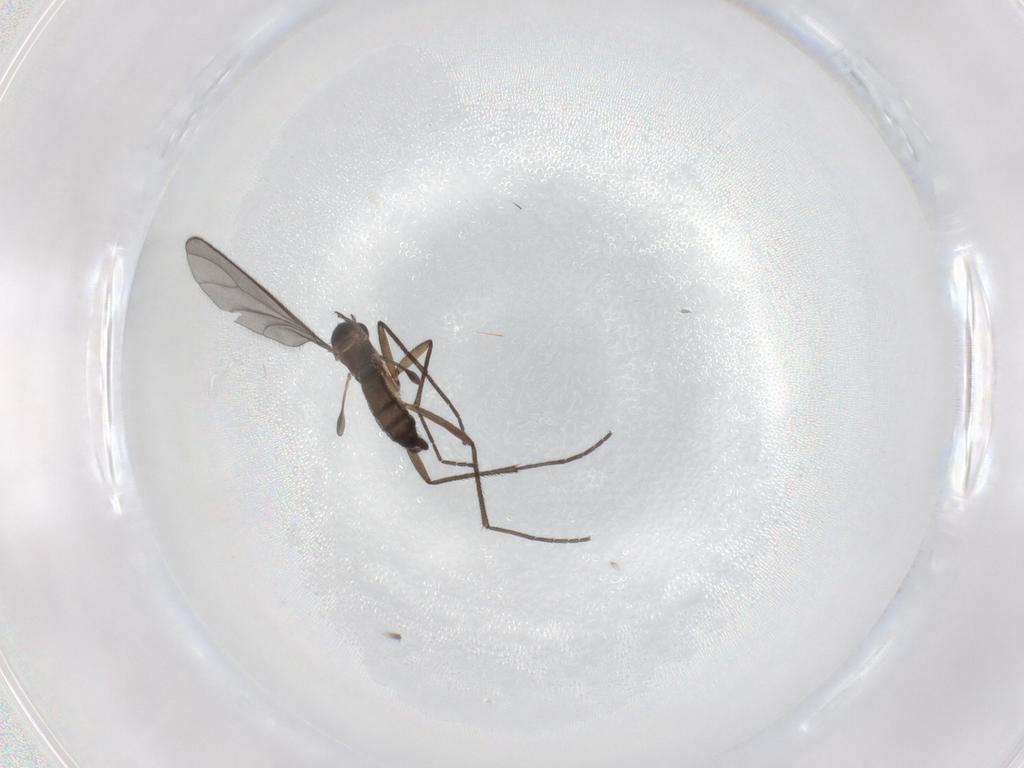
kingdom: Animalia
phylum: Arthropoda
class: Insecta
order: Diptera
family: Sciaridae
